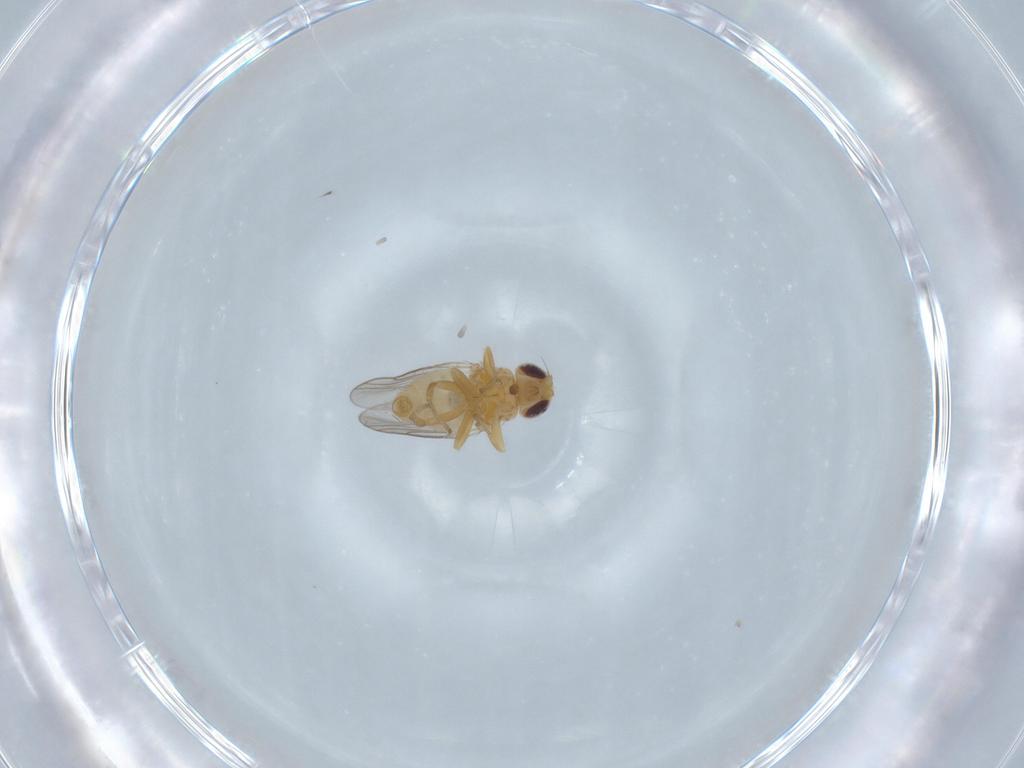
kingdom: Animalia
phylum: Arthropoda
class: Insecta
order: Diptera
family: Chloropidae
